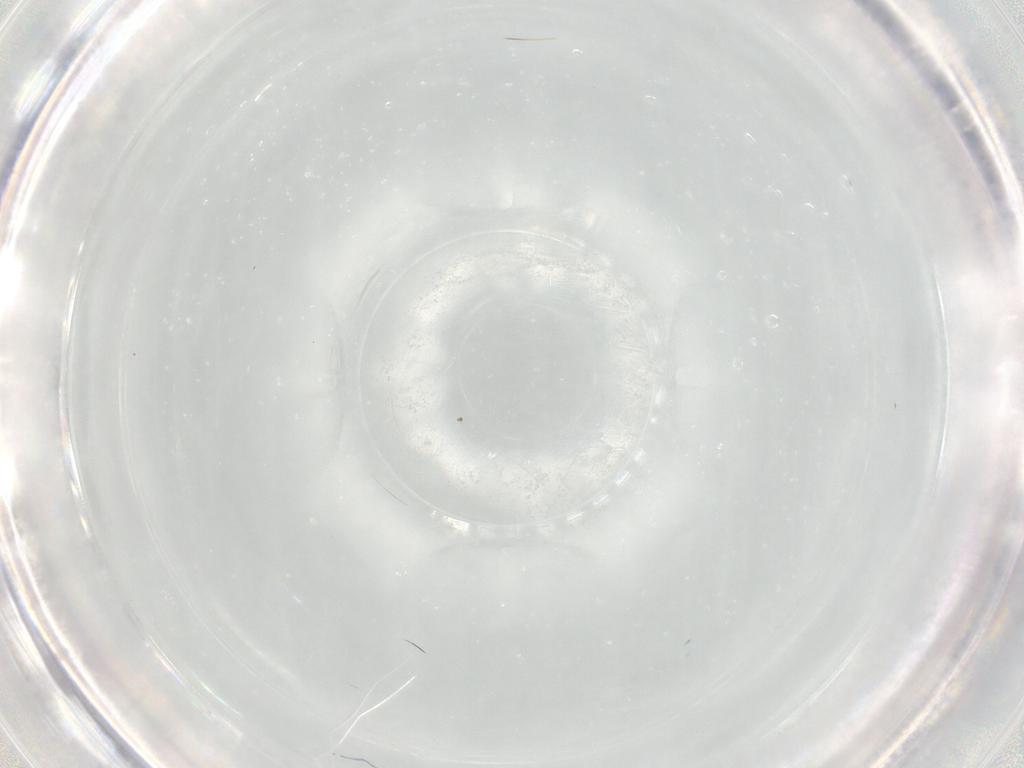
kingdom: Animalia
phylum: Arthropoda
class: Insecta
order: Diptera
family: Phoridae
